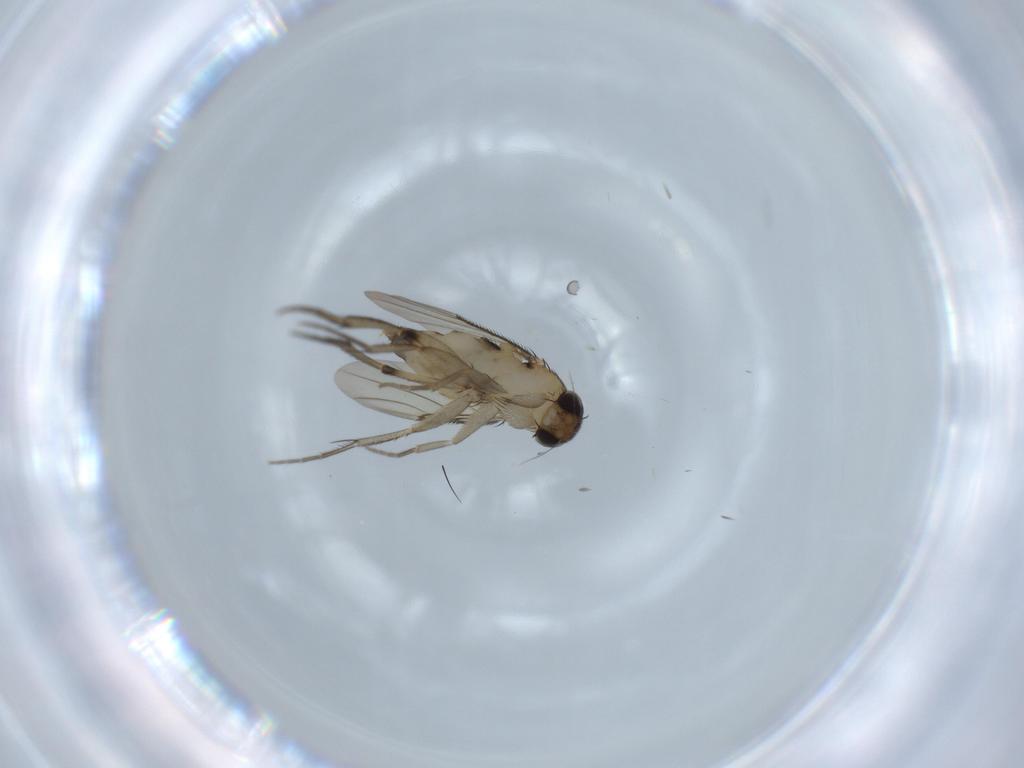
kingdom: Animalia
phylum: Arthropoda
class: Insecta
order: Diptera
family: Phoridae
